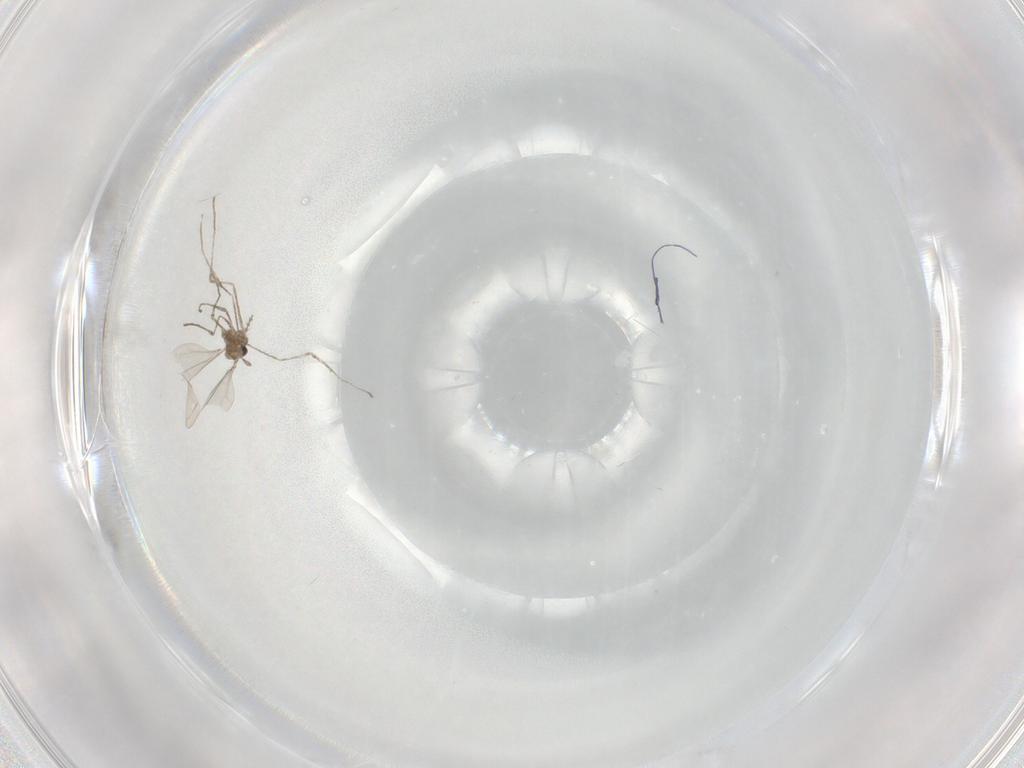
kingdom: Animalia
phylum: Arthropoda
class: Insecta
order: Diptera
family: Cecidomyiidae
